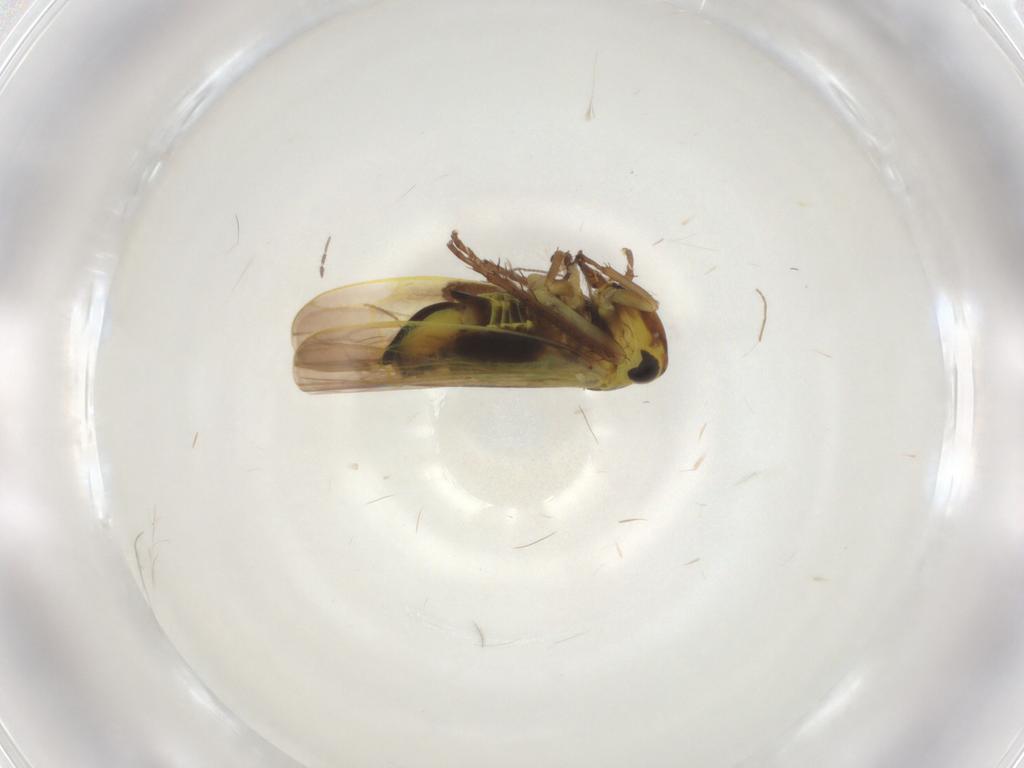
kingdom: Animalia
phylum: Arthropoda
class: Insecta
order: Hemiptera
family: Cicadellidae
